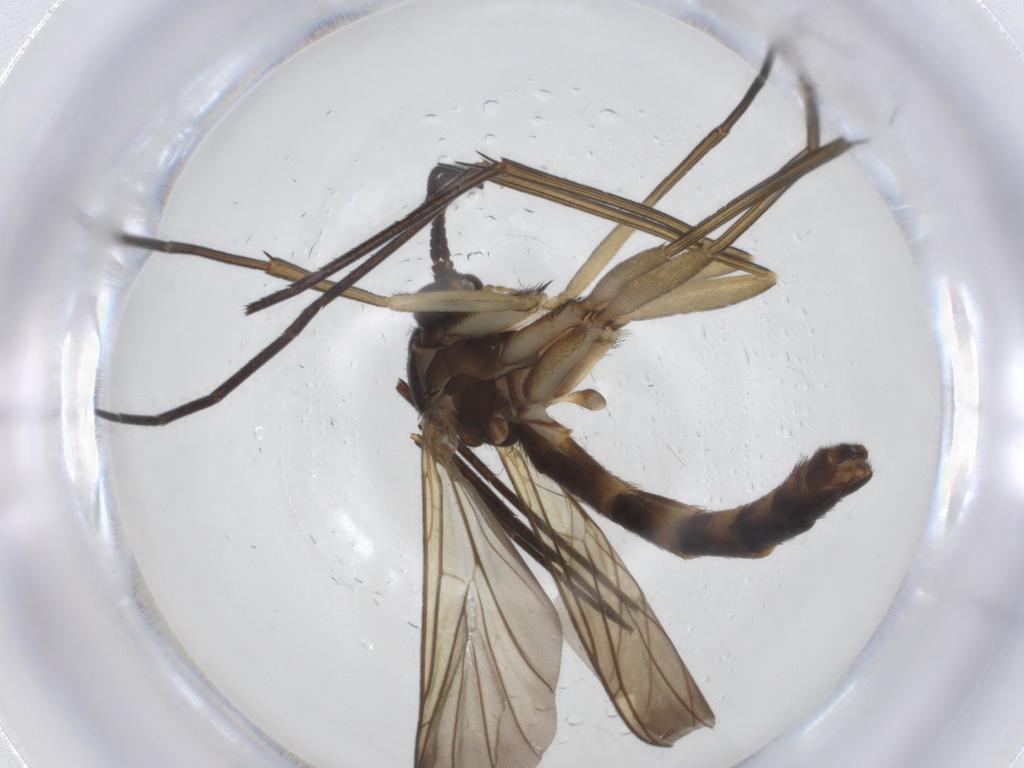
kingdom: Animalia
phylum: Arthropoda
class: Insecta
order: Diptera
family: Keroplatidae
